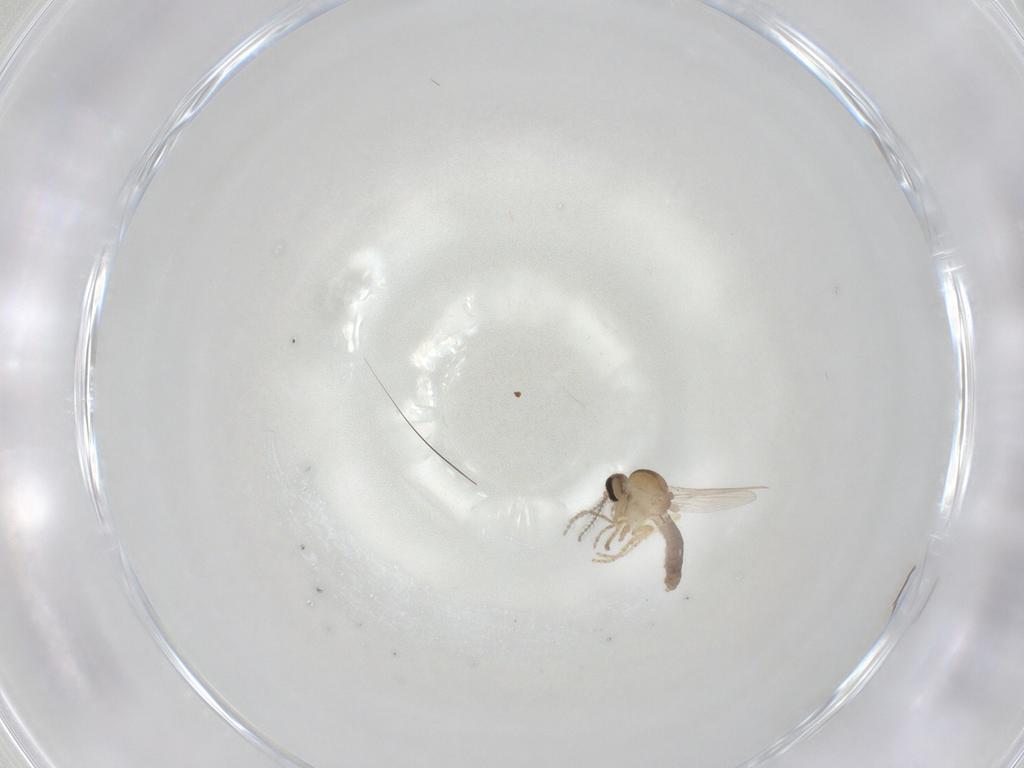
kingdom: Animalia
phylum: Arthropoda
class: Insecta
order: Diptera
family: Ceratopogonidae
